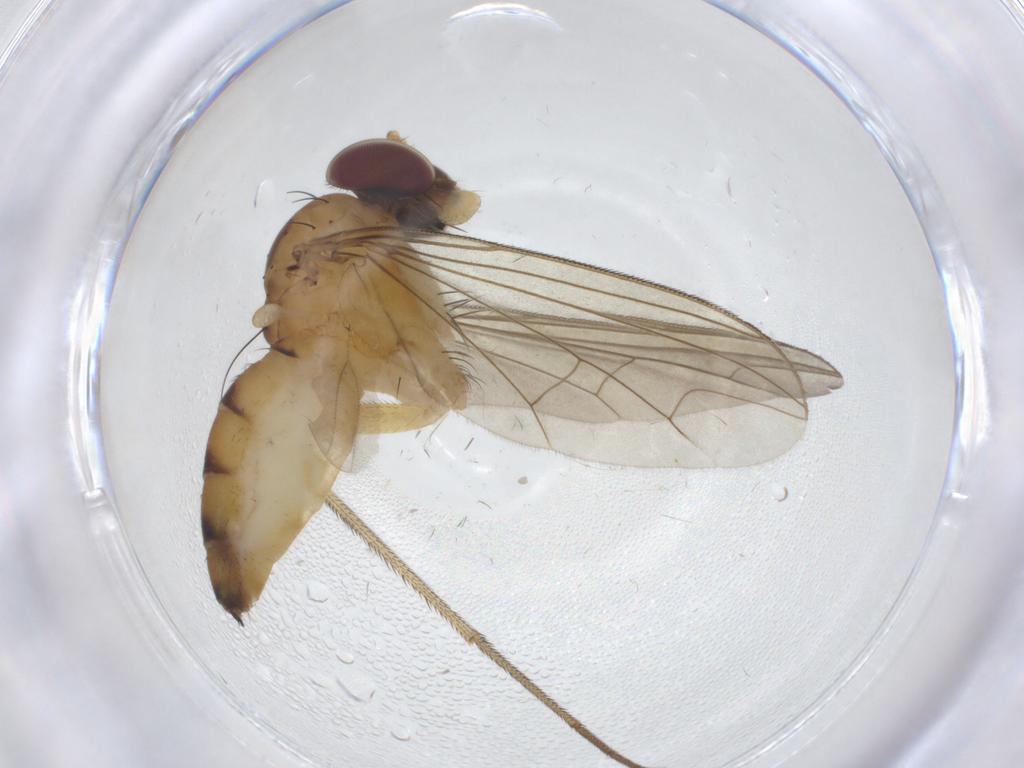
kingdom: Animalia
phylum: Arthropoda
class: Insecta
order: Diptera
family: Dolichopodidae
